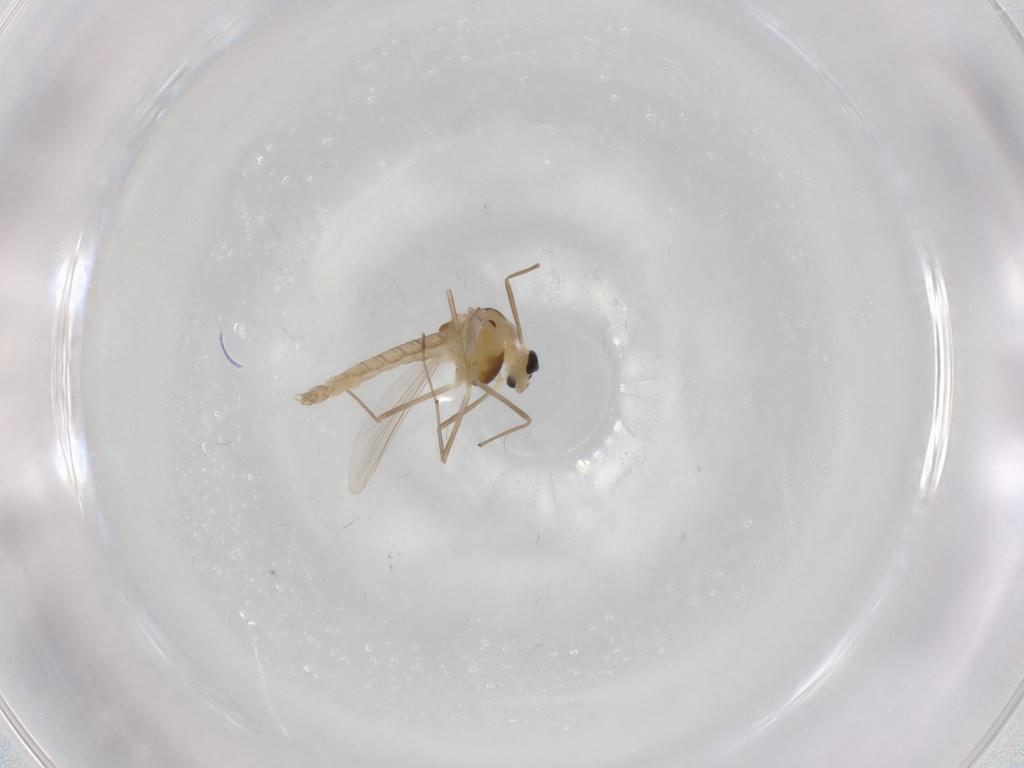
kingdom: Animalia
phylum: Arthropoda
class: Insecta
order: Diptera
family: Chironomidae
